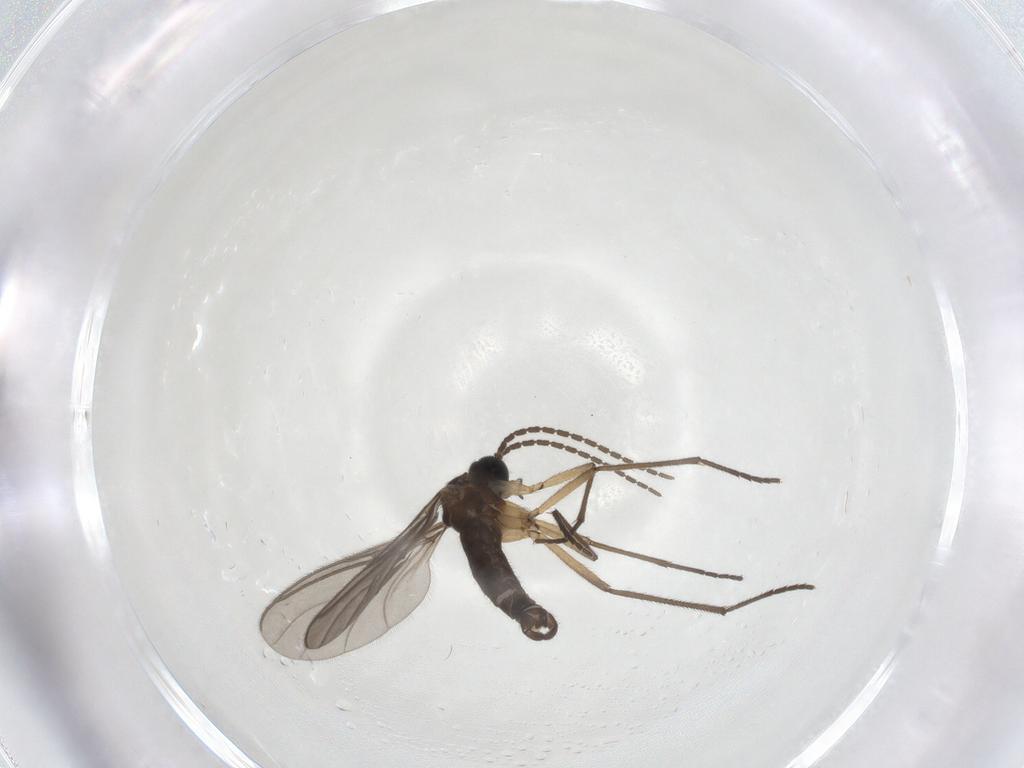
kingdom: Animalia
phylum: Arthropoda
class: Insecta
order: Diptera
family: Sciaridae
